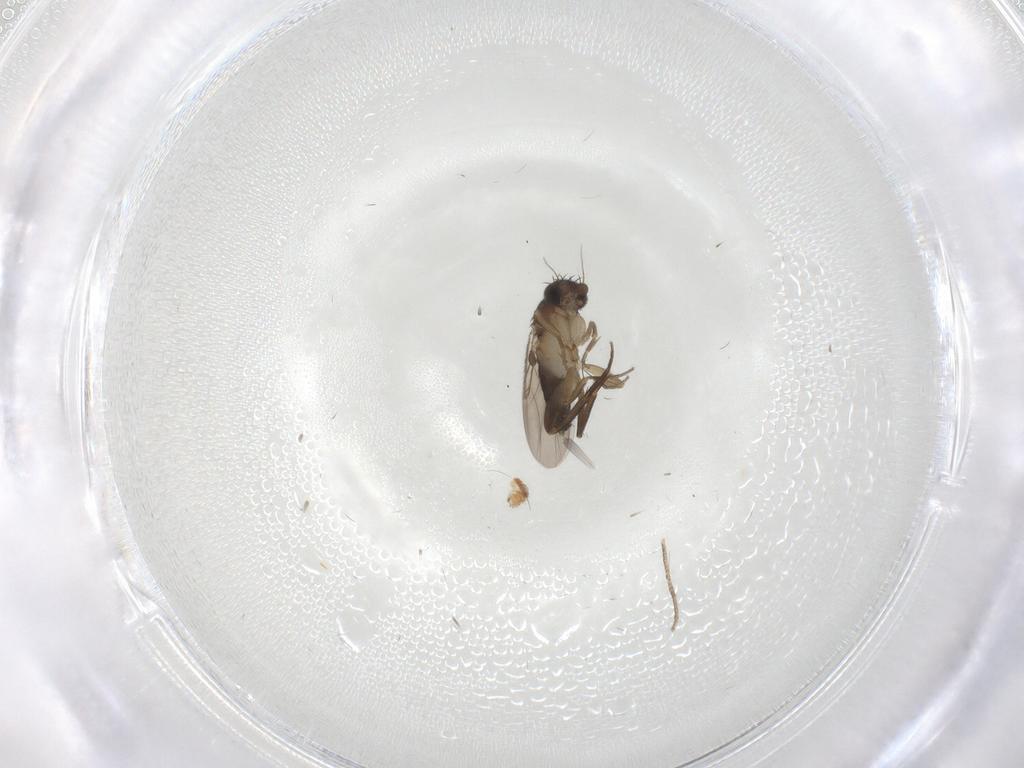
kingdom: Animalia
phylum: Arthropoda
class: Insecta
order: Diptera
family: Phoridae
